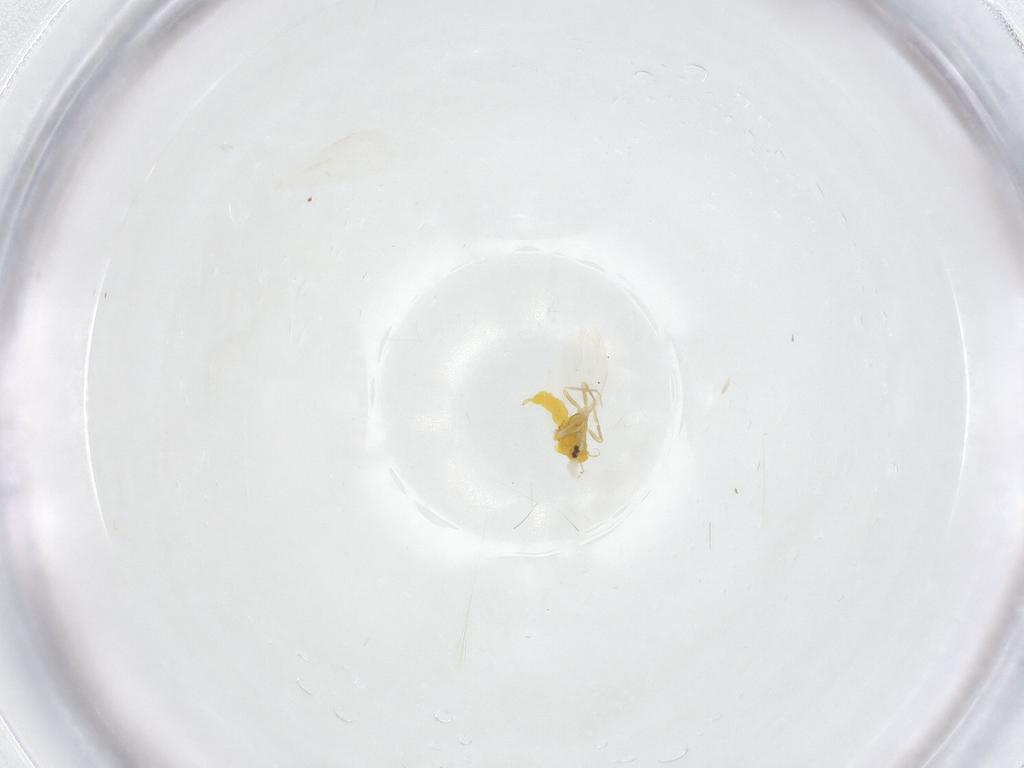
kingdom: Animalia
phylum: Arthropoda
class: Insecta
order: Hemiptera
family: Aleyrodidae
